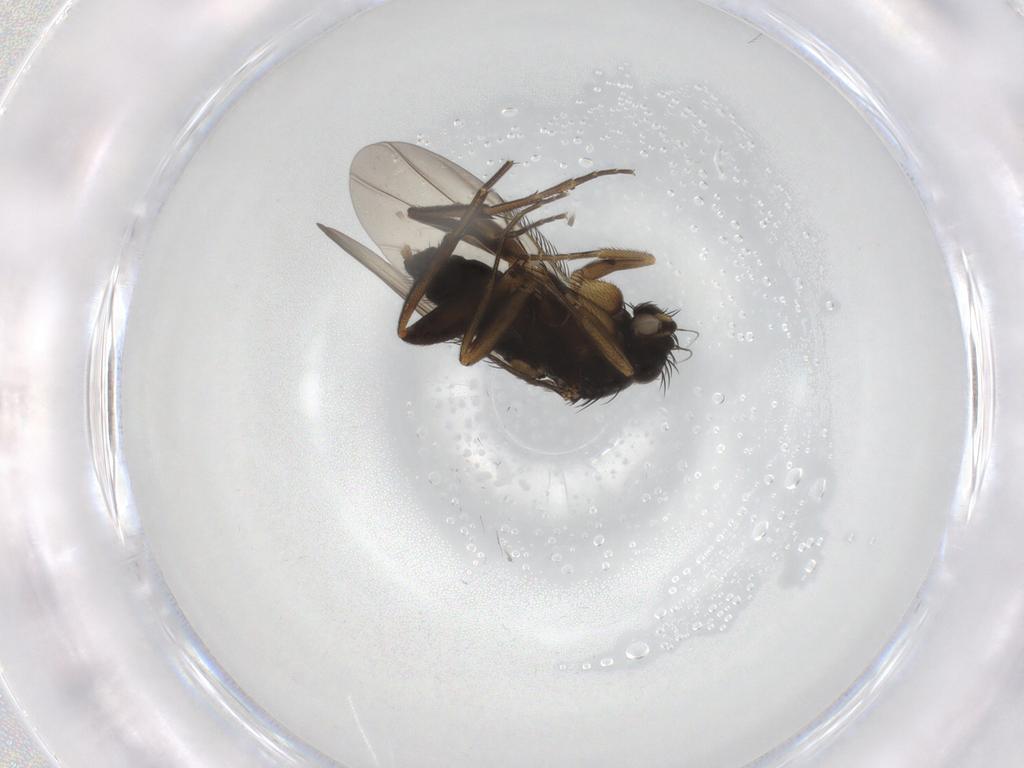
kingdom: Animalia
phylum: Arthropoda
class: Insecta
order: Diptera
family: Phoridae
